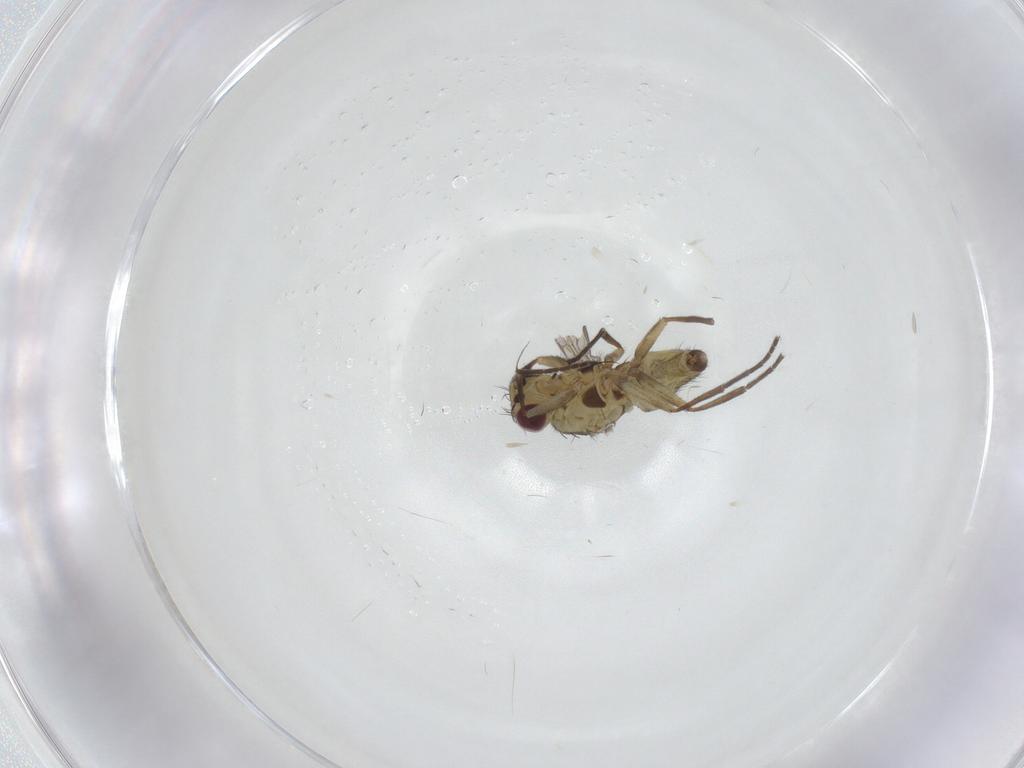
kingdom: Animalia
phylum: Arthropoda
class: Insecta
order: Diptera
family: Agromyzidae
